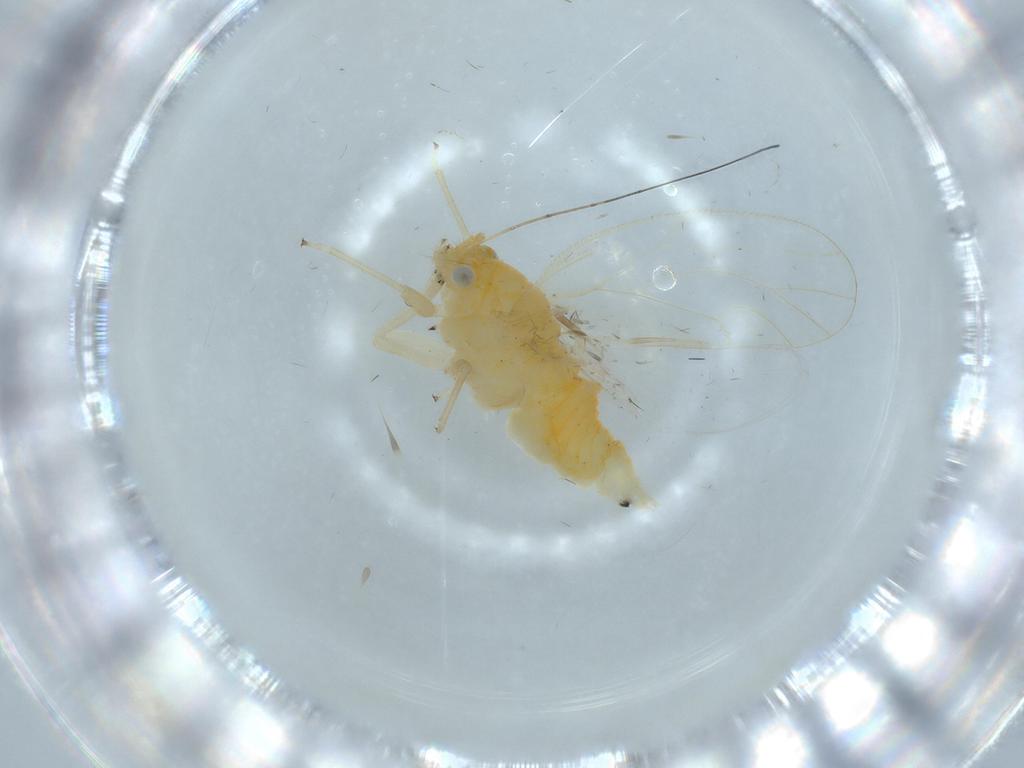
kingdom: Animalia
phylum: Arthropoda
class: Insecta
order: Hemiptera
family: Psyllidae
